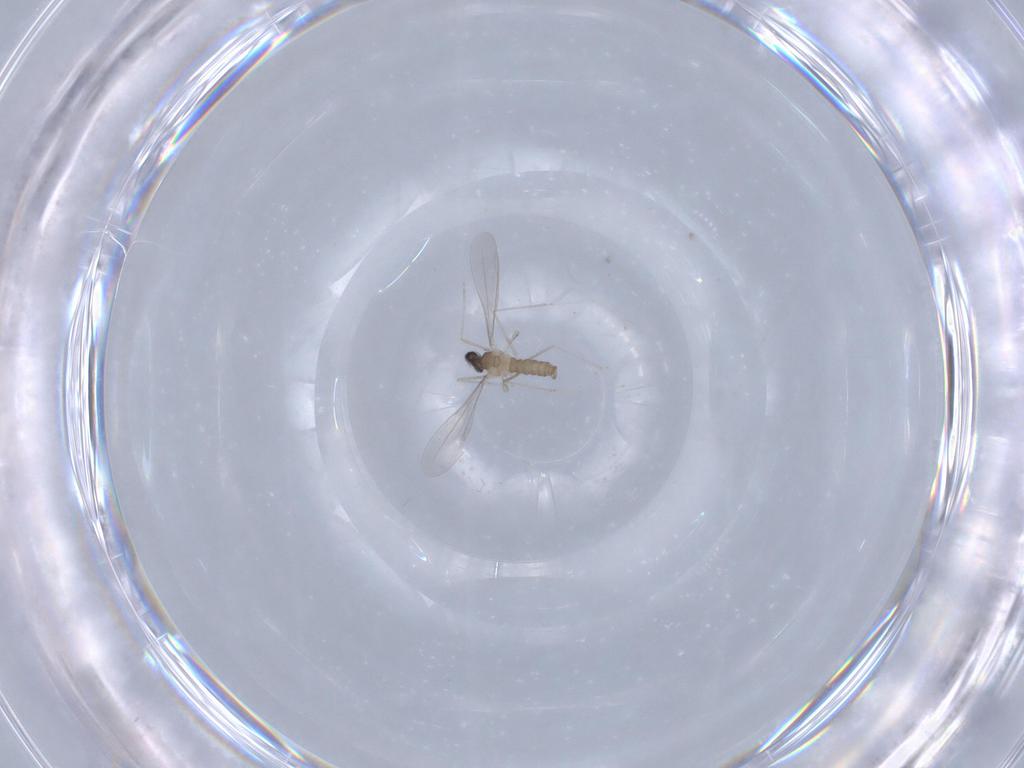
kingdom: Animalia
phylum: Arthropoda
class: Insecta
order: Diptera
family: Cecidomyiidae
